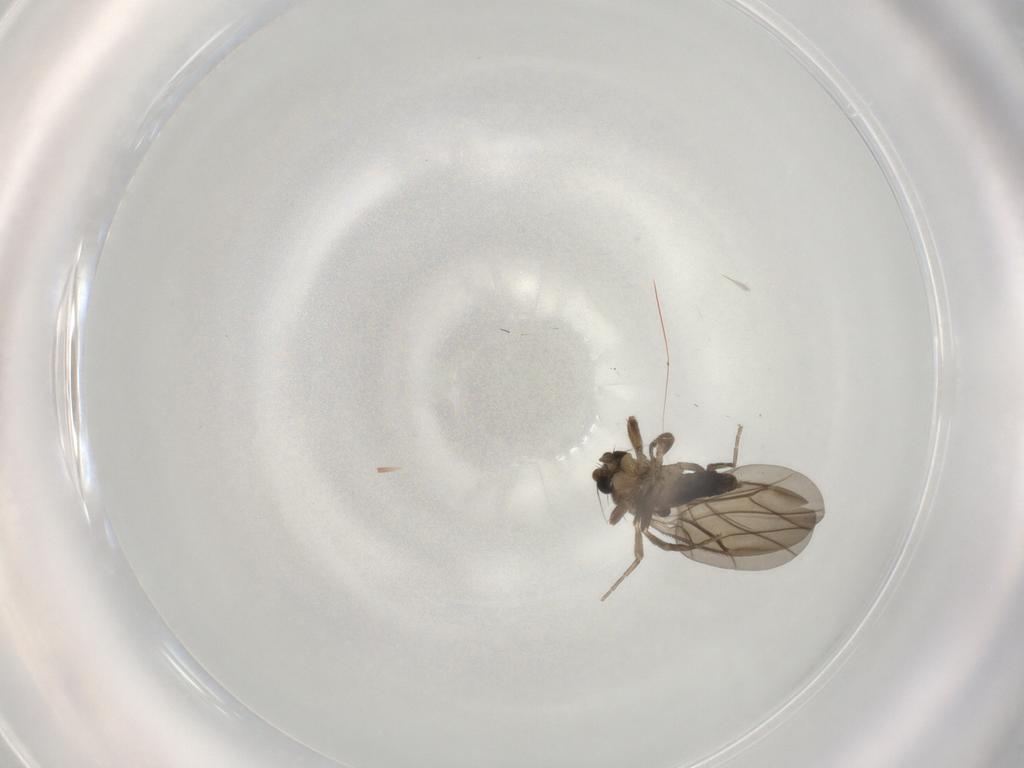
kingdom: Animalia
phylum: Arthropoda
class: Insecta
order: Diptera
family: Phoridae
